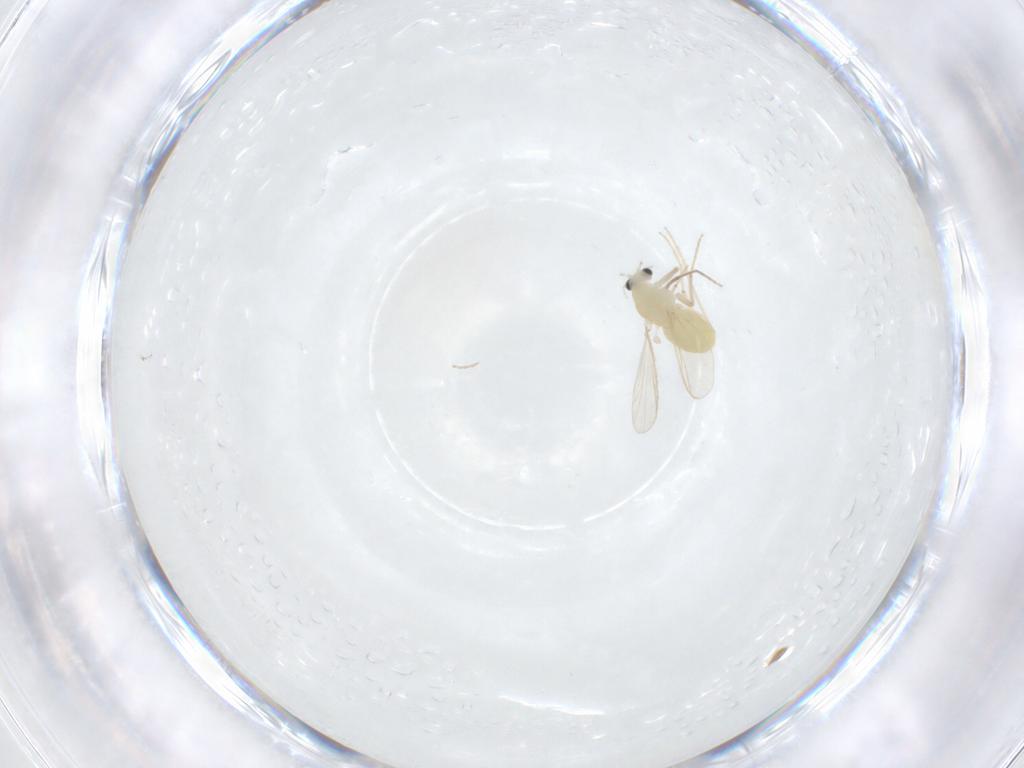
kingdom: Animalia
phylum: Arthropoda
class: Insecta
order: Diptera
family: Chironomidae
